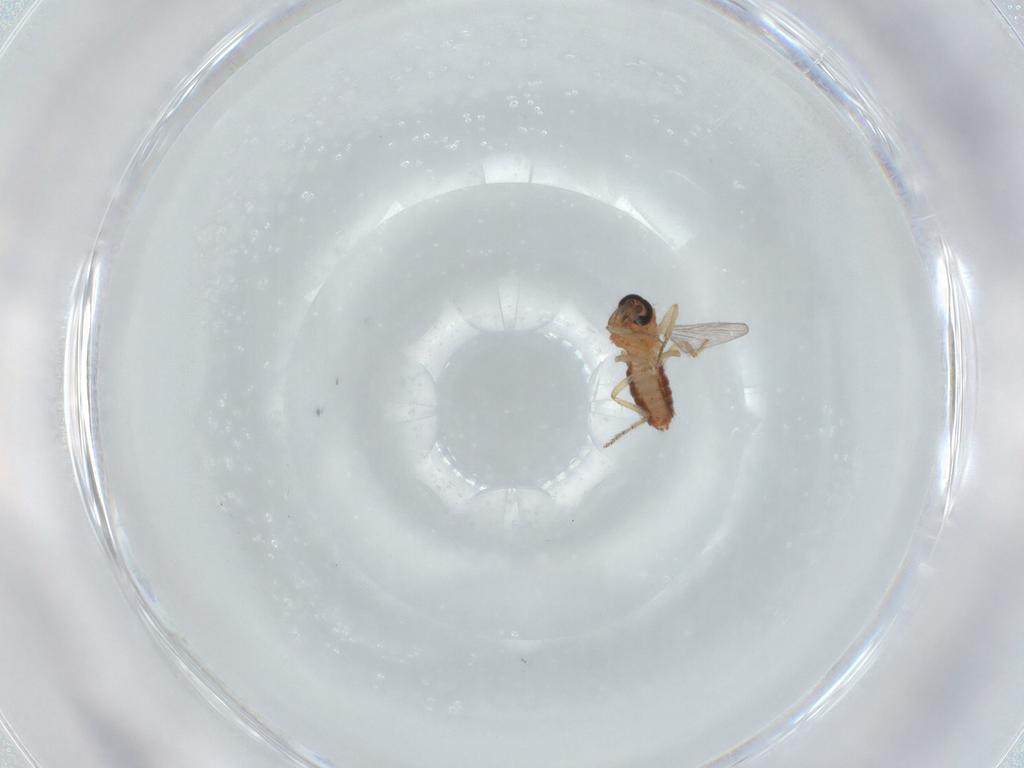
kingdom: Animalia
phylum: Arthropoda
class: Insecta
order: Diptera
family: Ceratopogonidae
